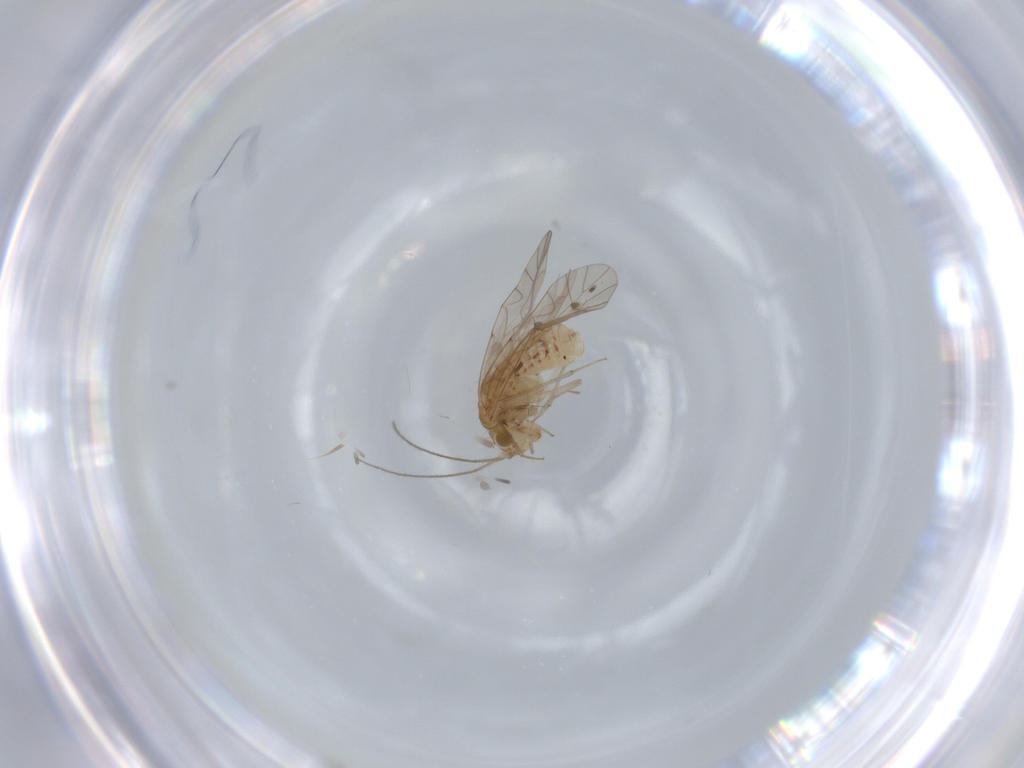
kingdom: Animalia
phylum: Arthropoda
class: Insecta
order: Psocodea
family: Lachesillidae
